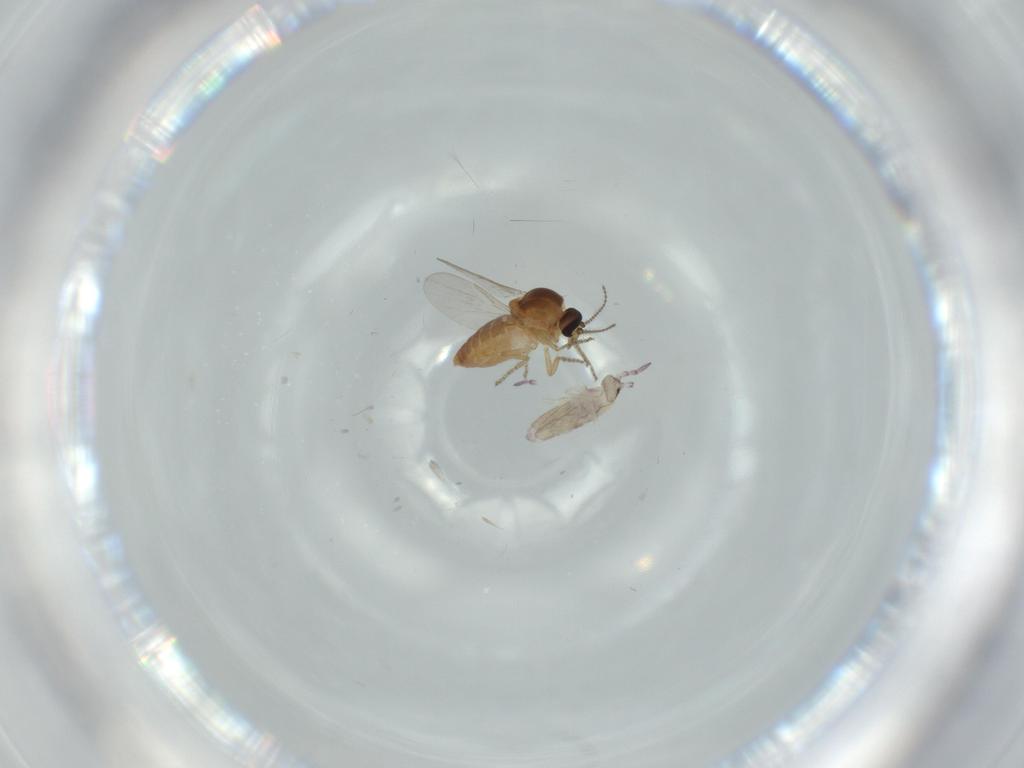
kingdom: Animalia
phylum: Arthropoda
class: Insecta
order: Diptera
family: Ceratopogonidae
